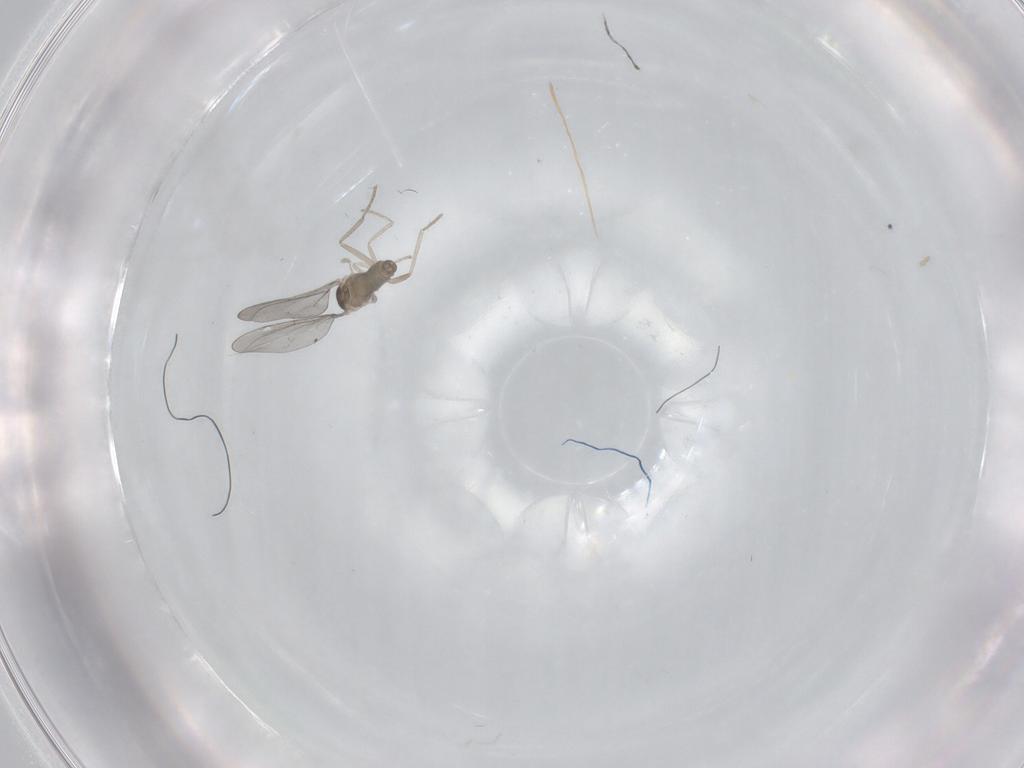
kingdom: Animalia
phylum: Arthropoda
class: Insecta
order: Diptera
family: Cecidomyiidae
